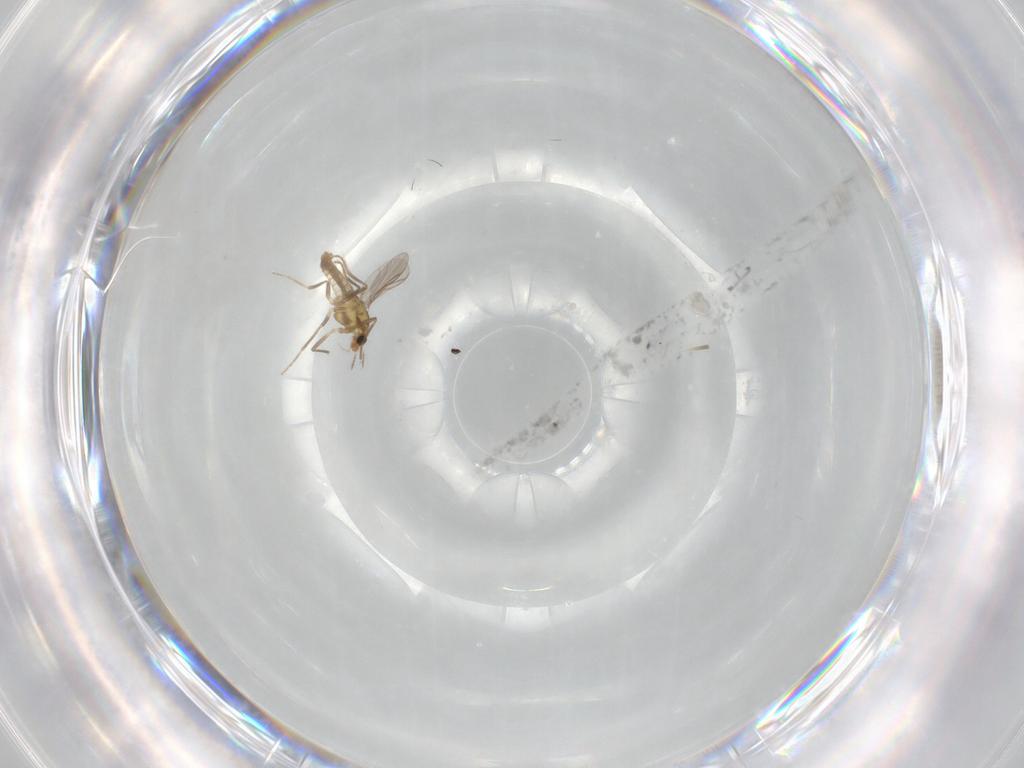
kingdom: Animalia
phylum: Arthropoda
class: Insecta
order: Diptera
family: Chironomidae
